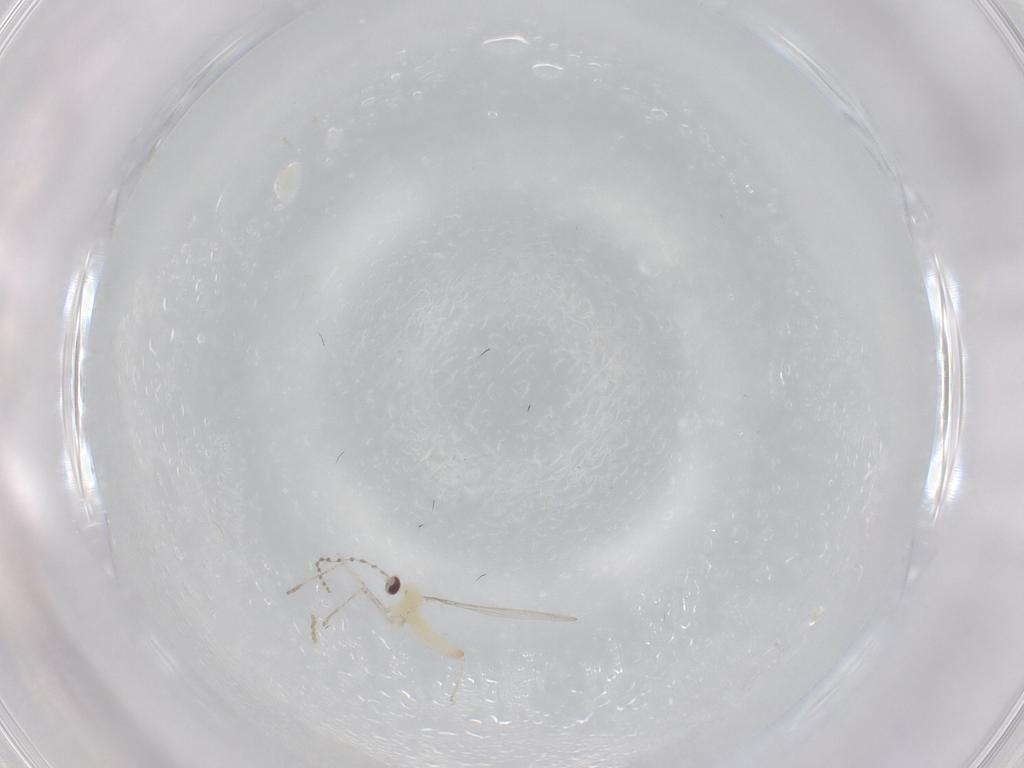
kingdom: Animalia
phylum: Arthropoda
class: Insecta
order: Diptera
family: Cecidomyiidae
